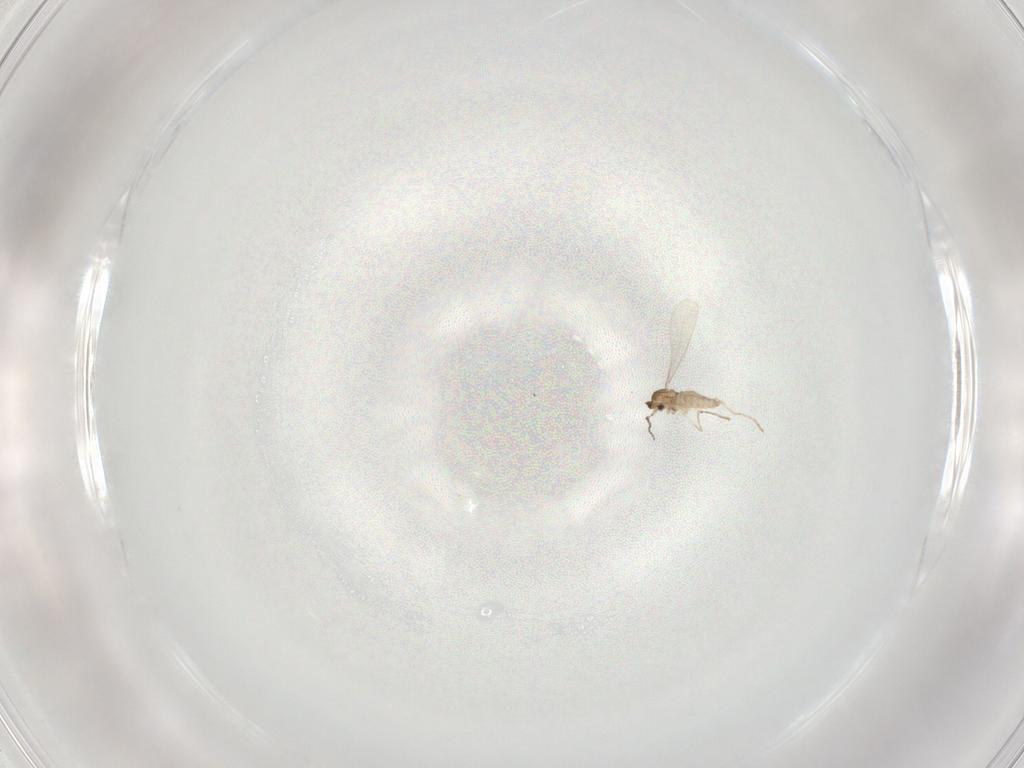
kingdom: Animalia
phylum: Arthropoda
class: Insecta
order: Diptera
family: Cecidomyiidae
